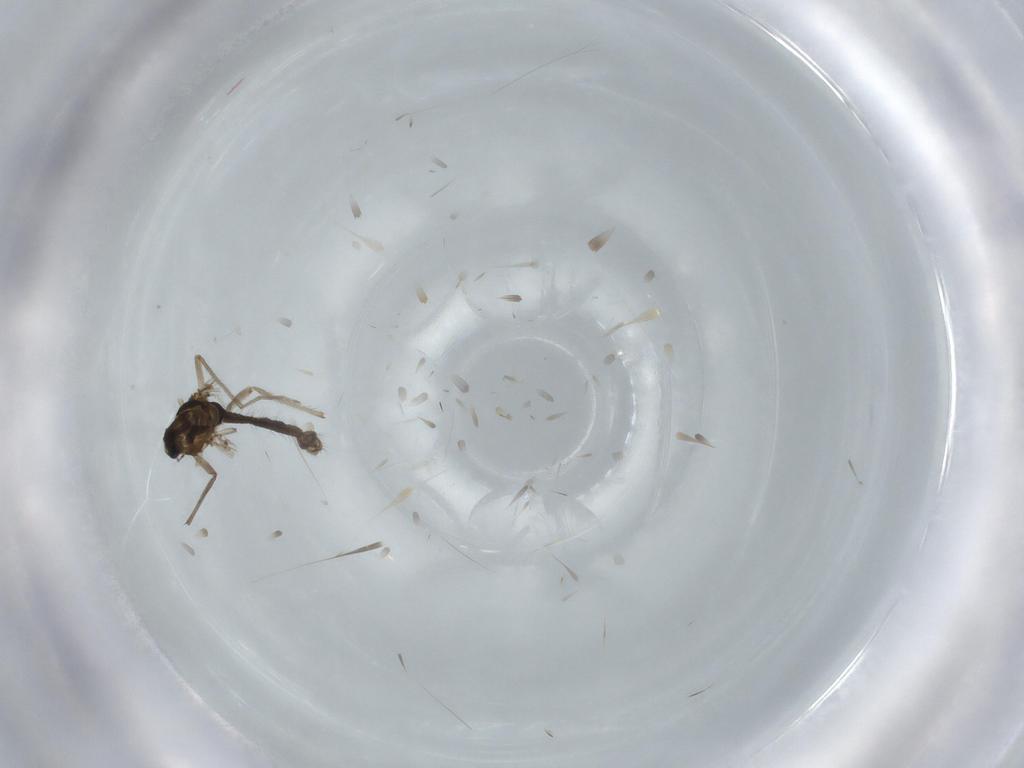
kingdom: Animalia
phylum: Arthropoda
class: Insecta
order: Diptera
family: Chironomidae
